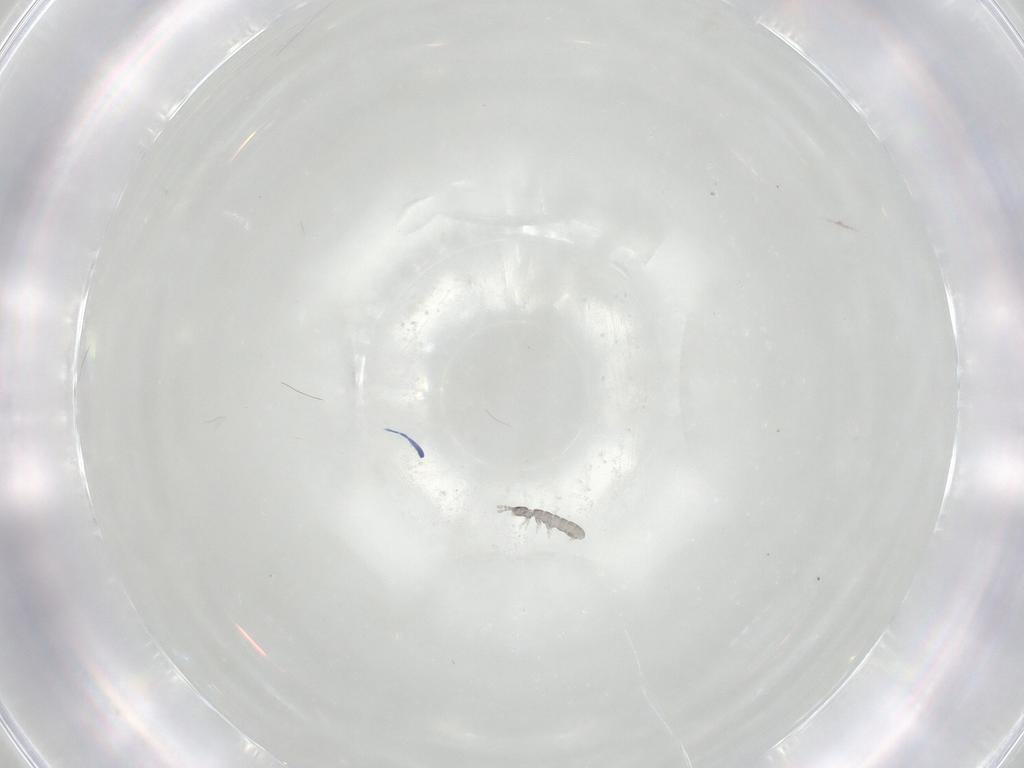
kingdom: Animalia
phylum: Arthropoda
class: Collembola
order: Entomobryomorpha
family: Isotomidae
